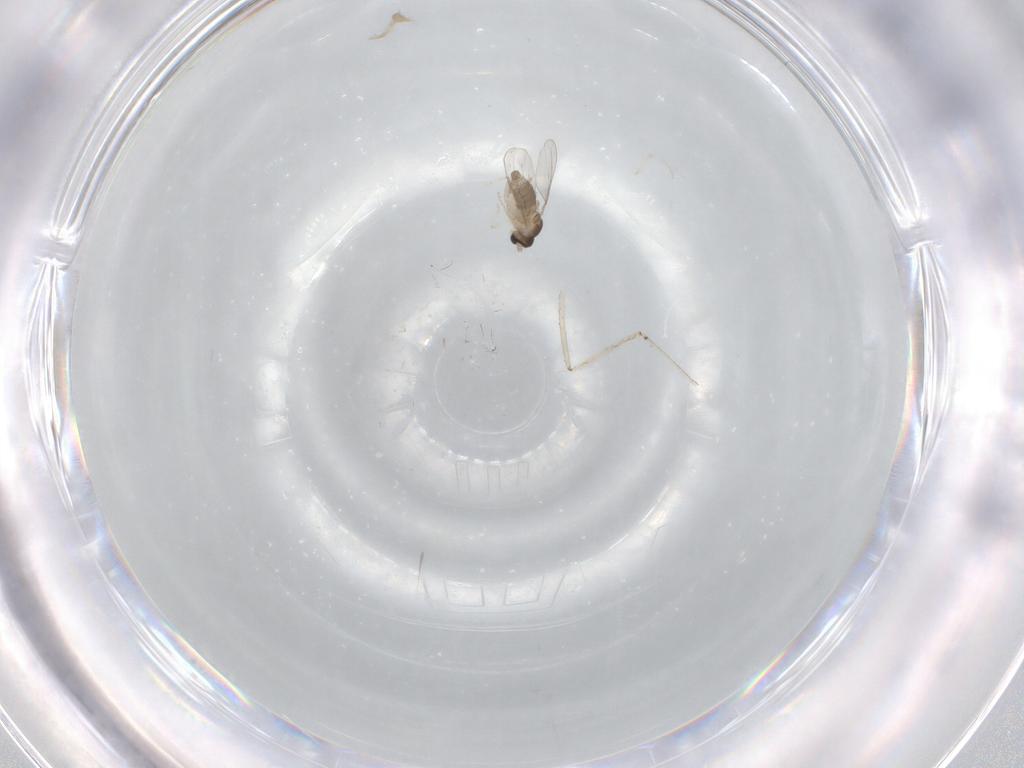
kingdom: Animalia
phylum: Arthropoda
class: Insecta
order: Diptera
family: Cecidomyiidae
